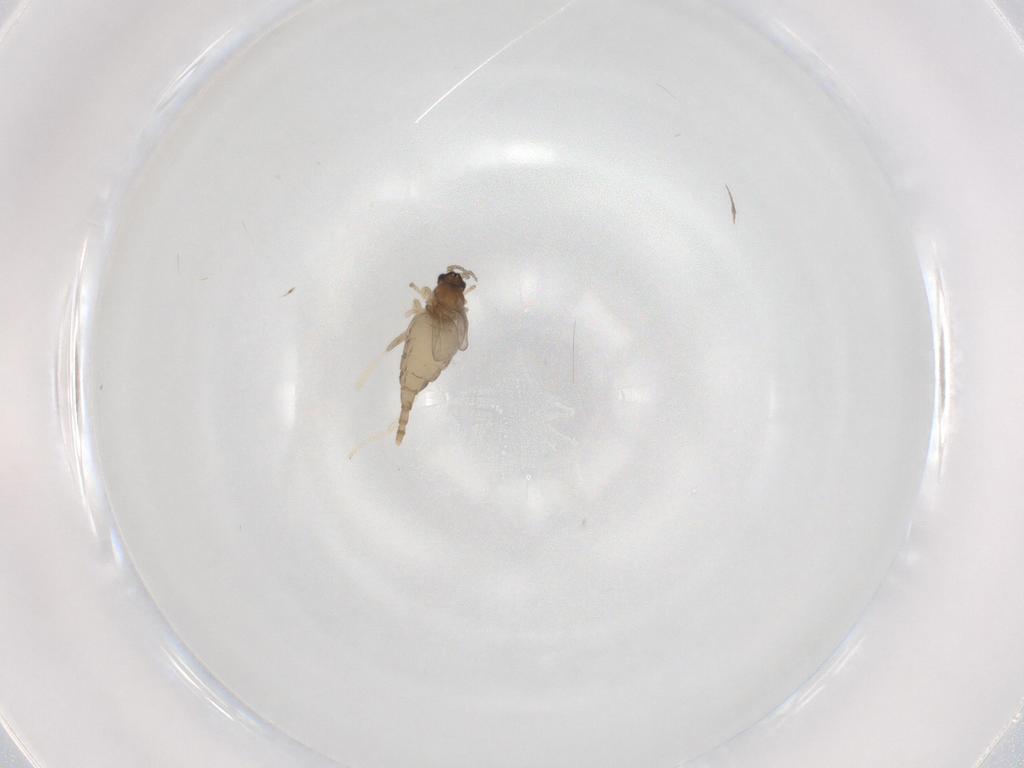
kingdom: Animalia
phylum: Arthropoda
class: Insecta
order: Diptera
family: Cecidomyiidae
